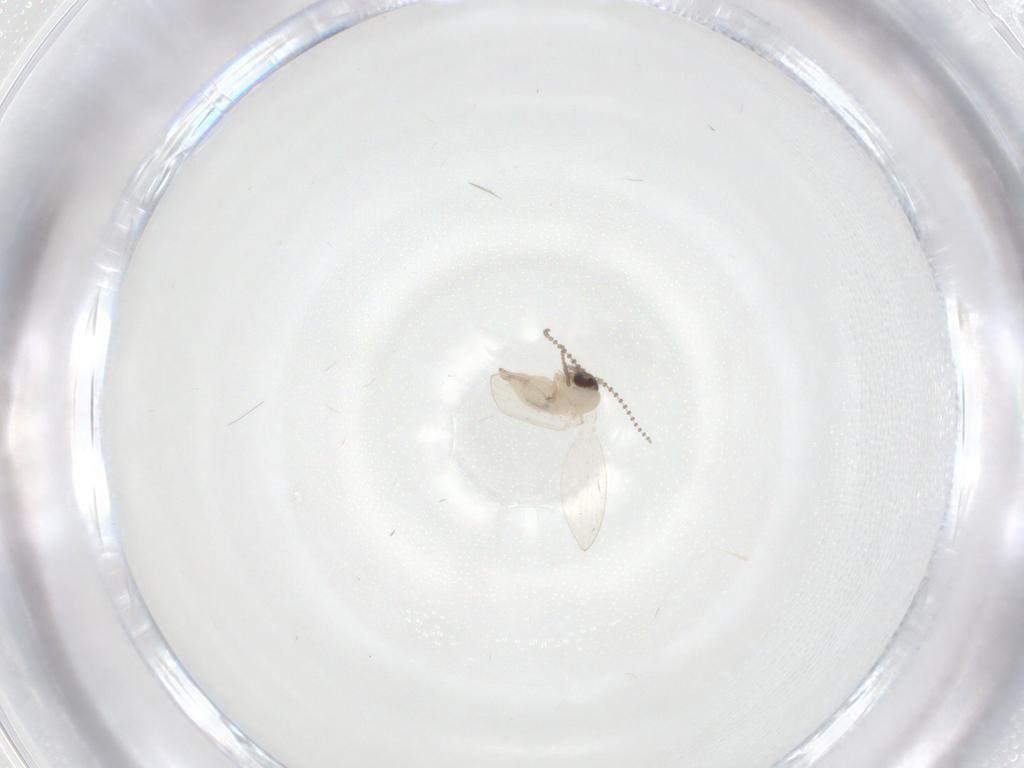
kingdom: Animalia
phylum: Arthropoda
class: Insecta
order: Diptera
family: Psychodidae
